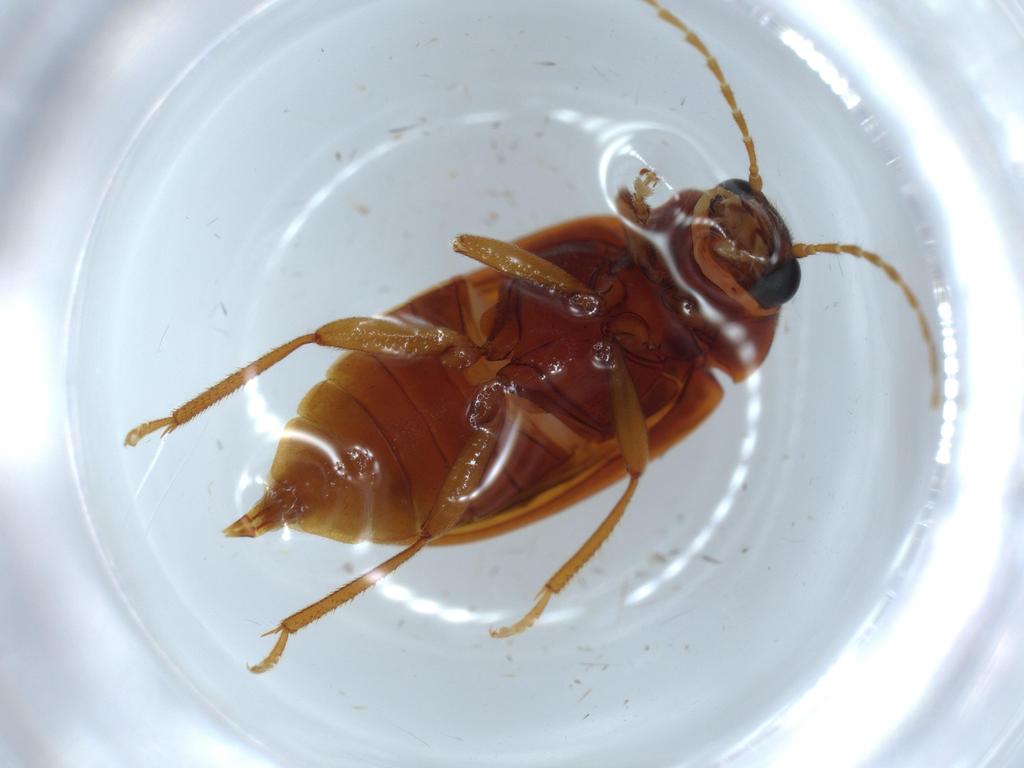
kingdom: Animalia
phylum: Arthropoda
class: Insecta
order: Coleoptera
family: Ptilodactylidae
